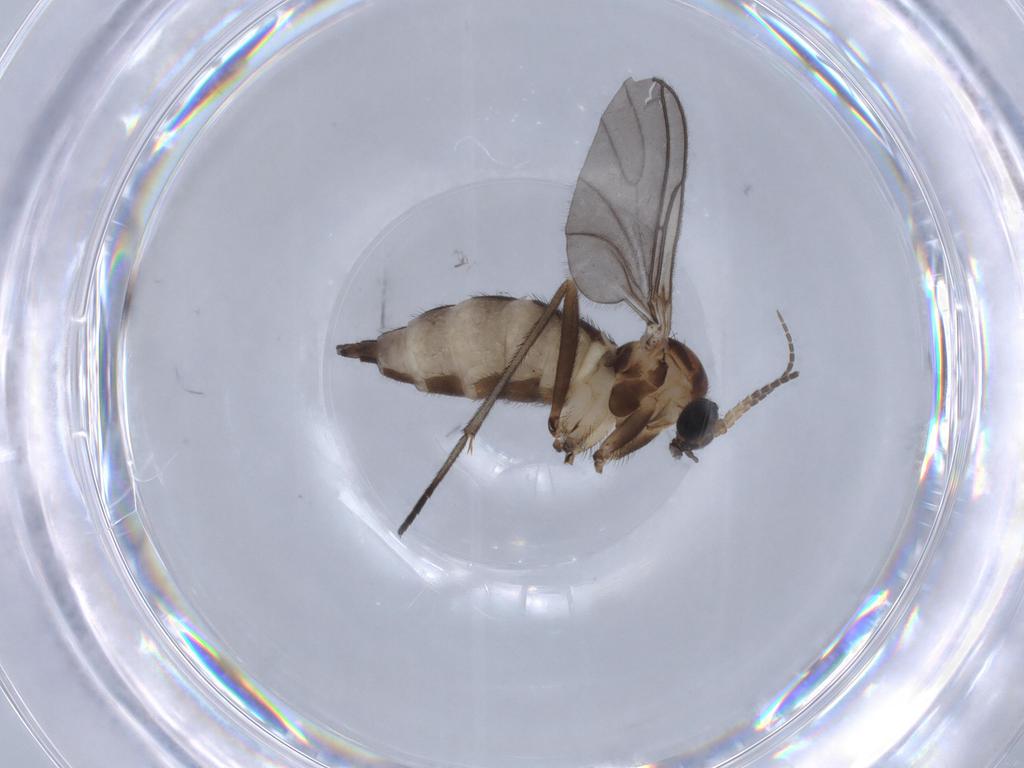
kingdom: Animalia
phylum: Arthropoda
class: Insecta
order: Diptera
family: Sciaridae
